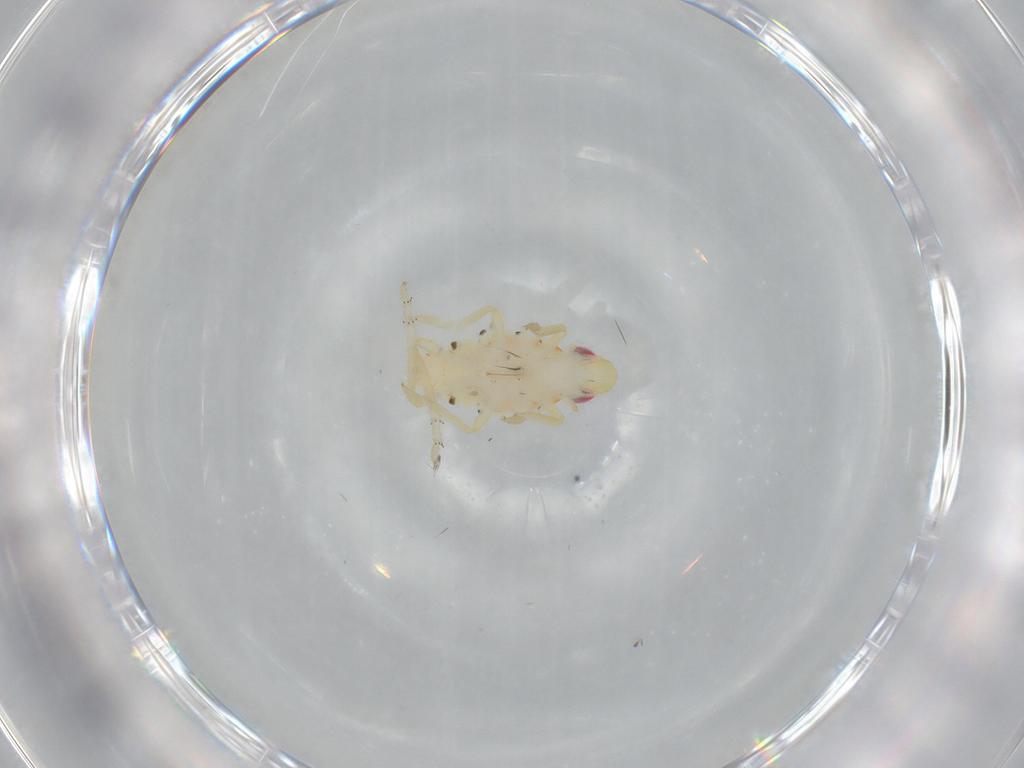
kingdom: Animalia
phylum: Arthropoda
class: Insecta
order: Hemiptera
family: Tropiduchidae
